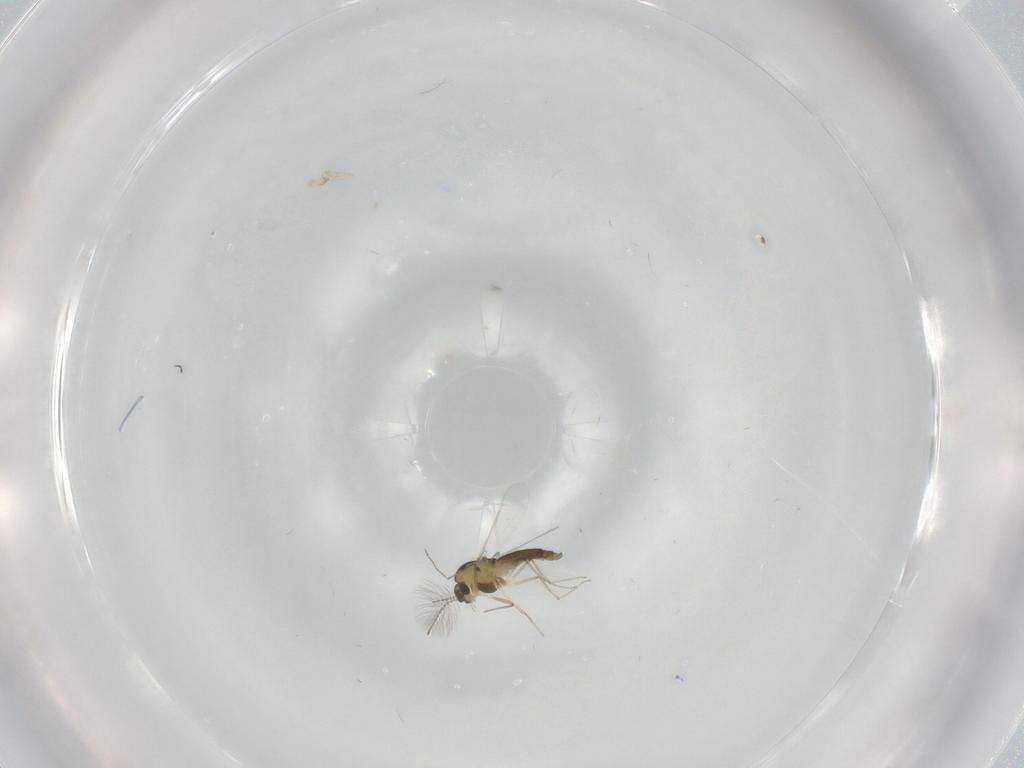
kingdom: Animalia
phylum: Arthropoda
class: Insecta
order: Diptera
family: Chironomidae
